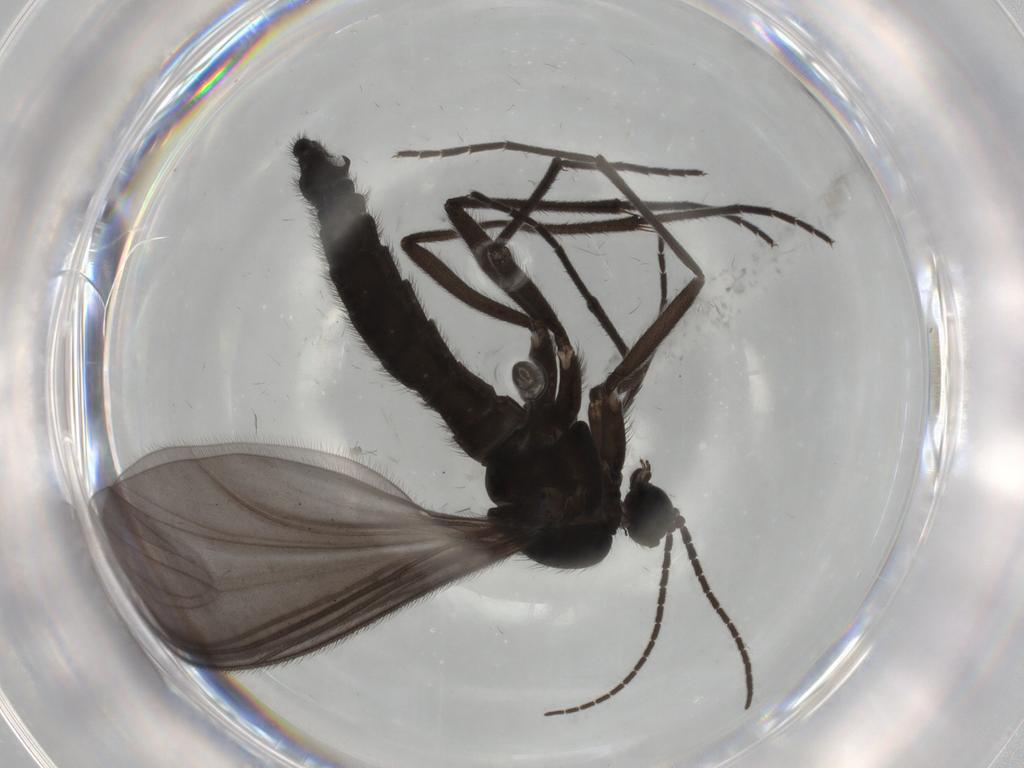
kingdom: Animalia
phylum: Arthropoda
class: Insecta
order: Diptera
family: Sciaridae
